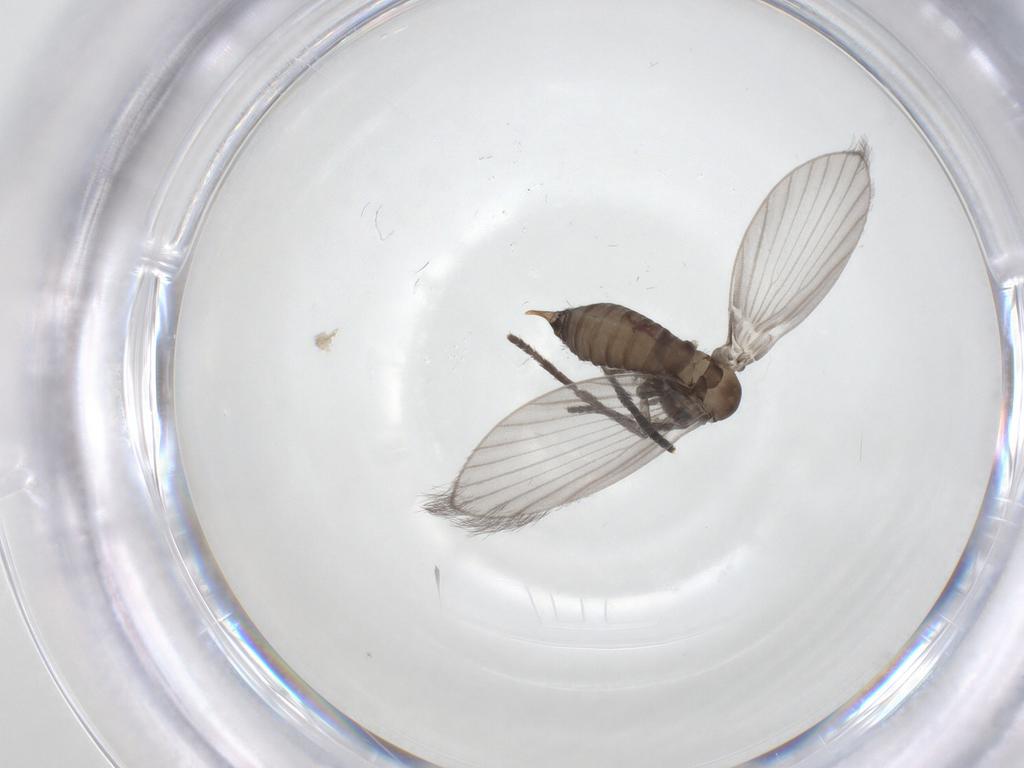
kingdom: Animalia
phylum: Arthropoda
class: Insecta
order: Diptera
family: Psychodidae
